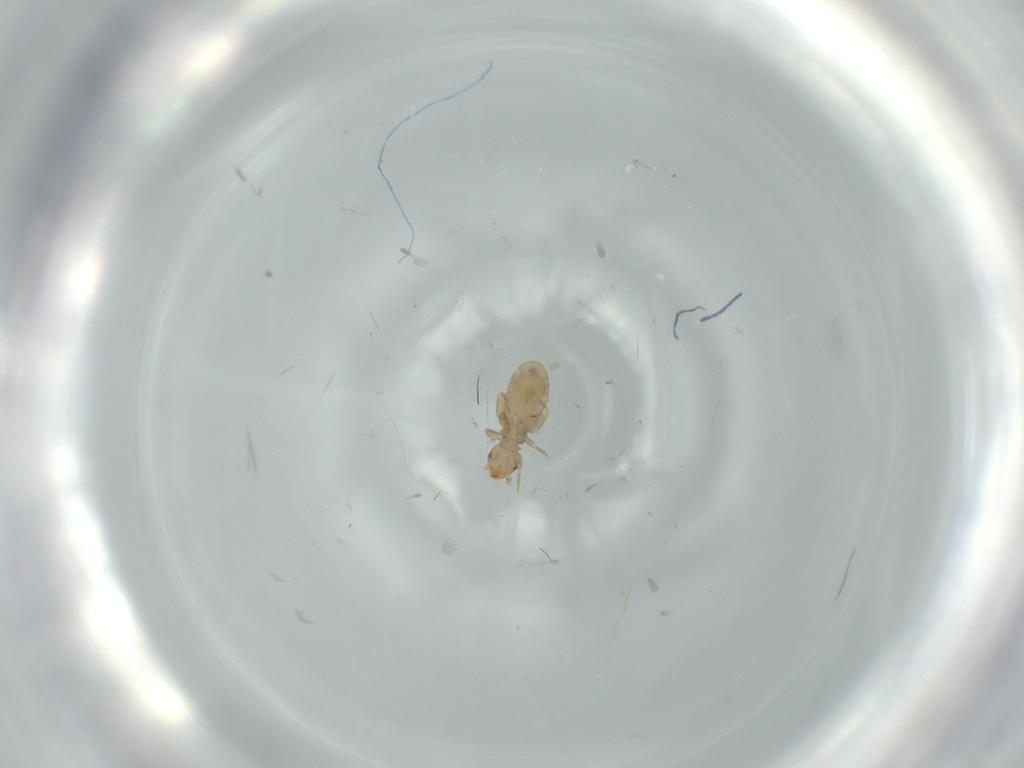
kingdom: Animalia
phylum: Arthropoda
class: Insecta
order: Psocodea
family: Liposcelididae
